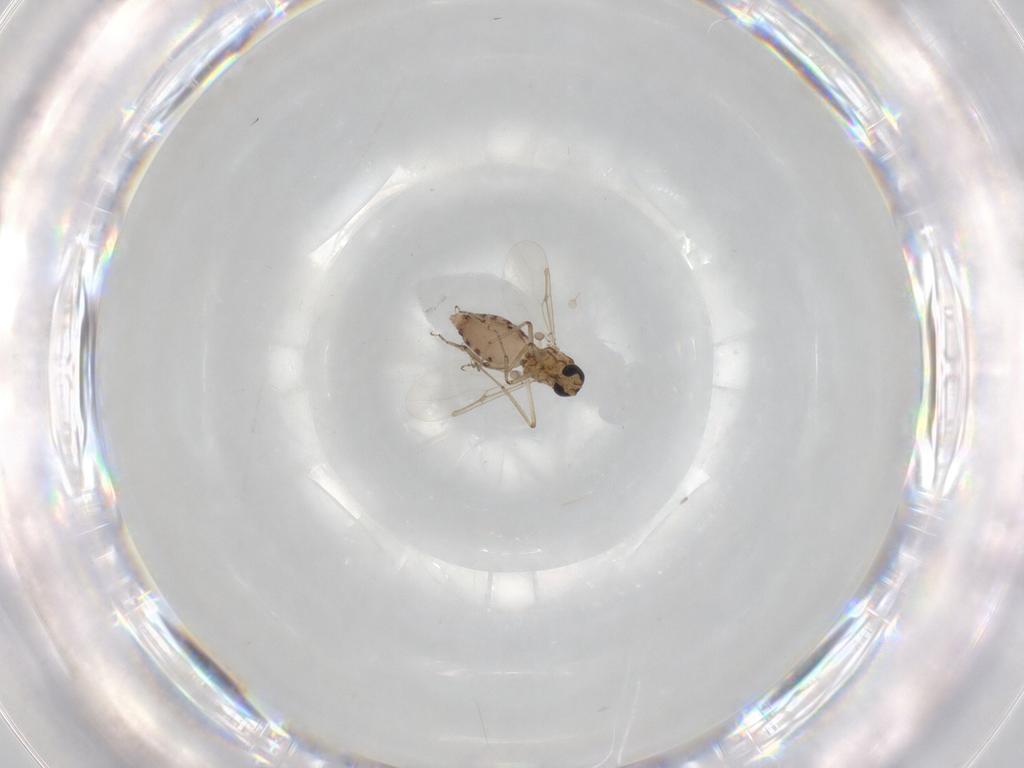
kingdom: Animalia
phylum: Arthropoda
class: Insecta
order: Diptera
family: Ceratopogonidae
